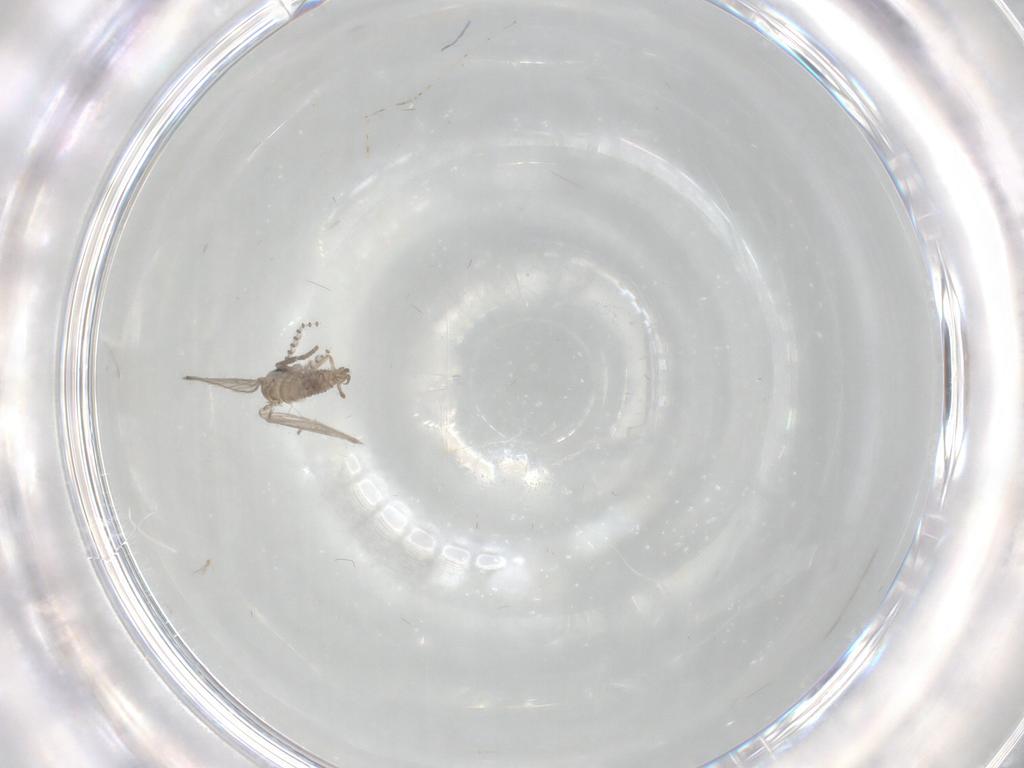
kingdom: Animalia
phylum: Arthropoda
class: Insecta
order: Diptera
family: Psychodidae
